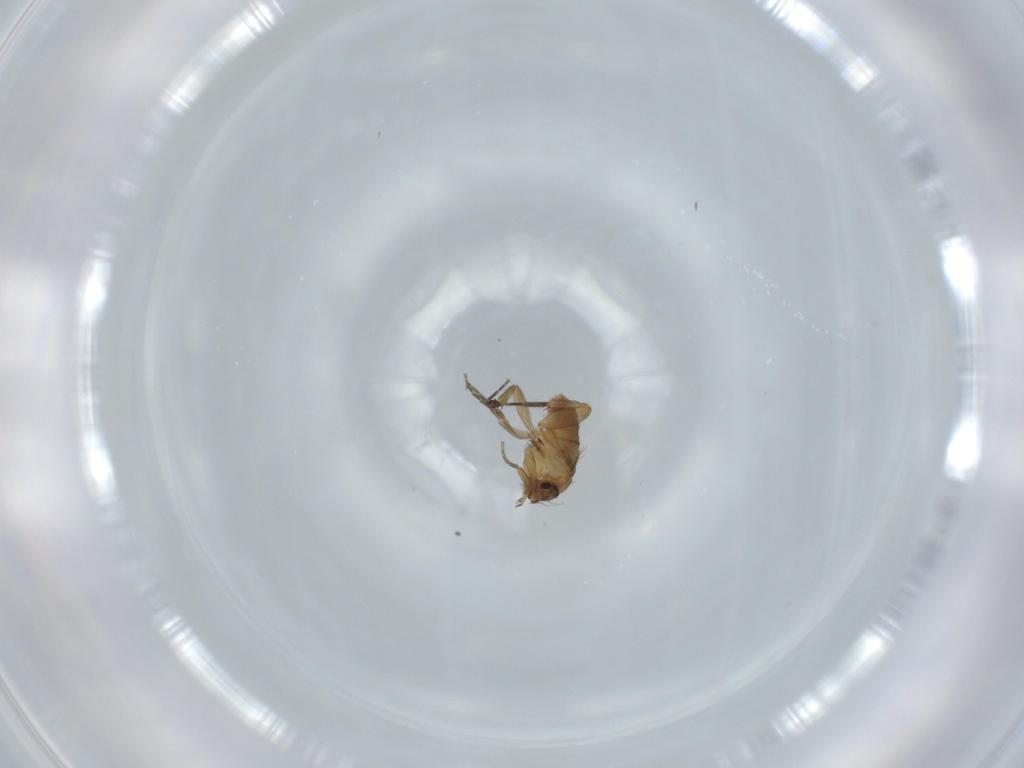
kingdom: Animalia
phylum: Arthropoda
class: Insecta
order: Diptera
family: Phoridae
